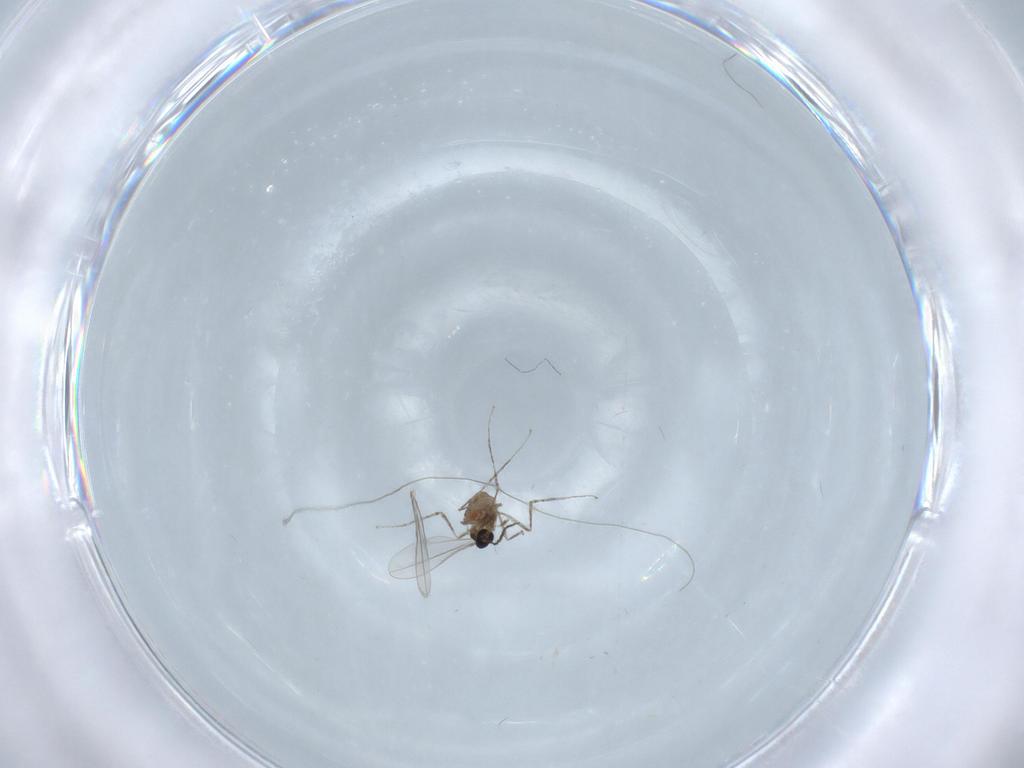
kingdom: Animalia
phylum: Arthropoda
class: Insecta
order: Diptera
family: Cecidomyiidae
